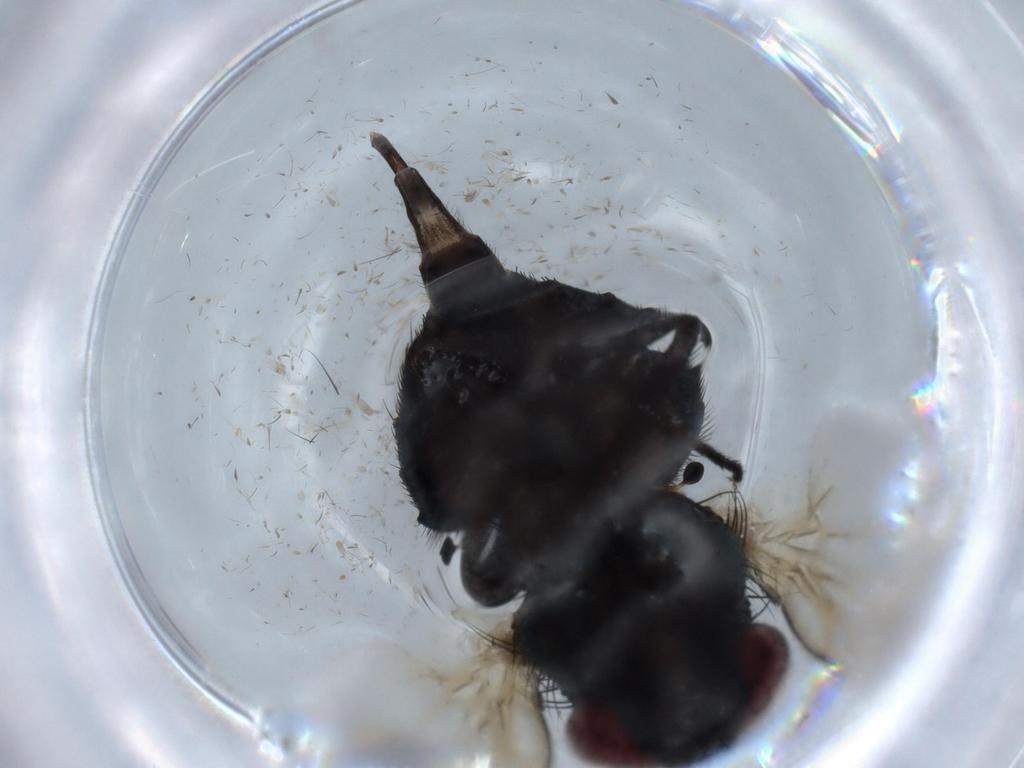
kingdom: Animalia
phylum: Arthropoda
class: Insecta
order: Diptera
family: Lonchaeidae
